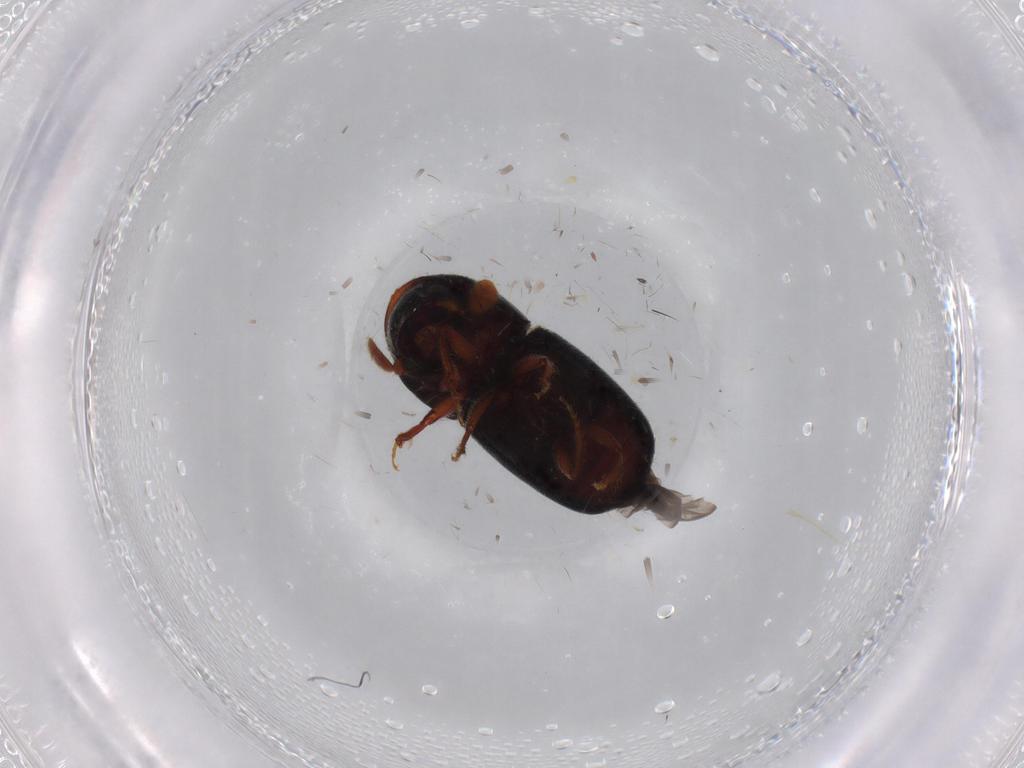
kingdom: Animalia
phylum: Arthropoda
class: Insecta
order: Coleoptera
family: Curculionidae
